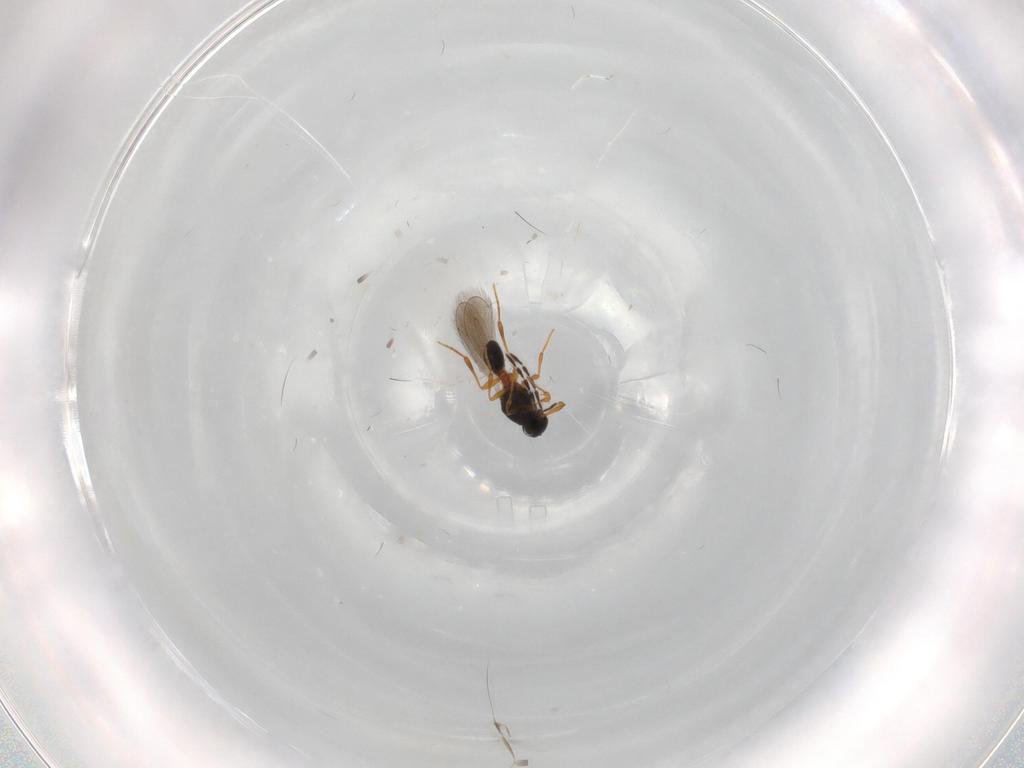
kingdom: Animalia
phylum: Arthropoda
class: Insecta
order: Hymenoptera
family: Platygastridae
